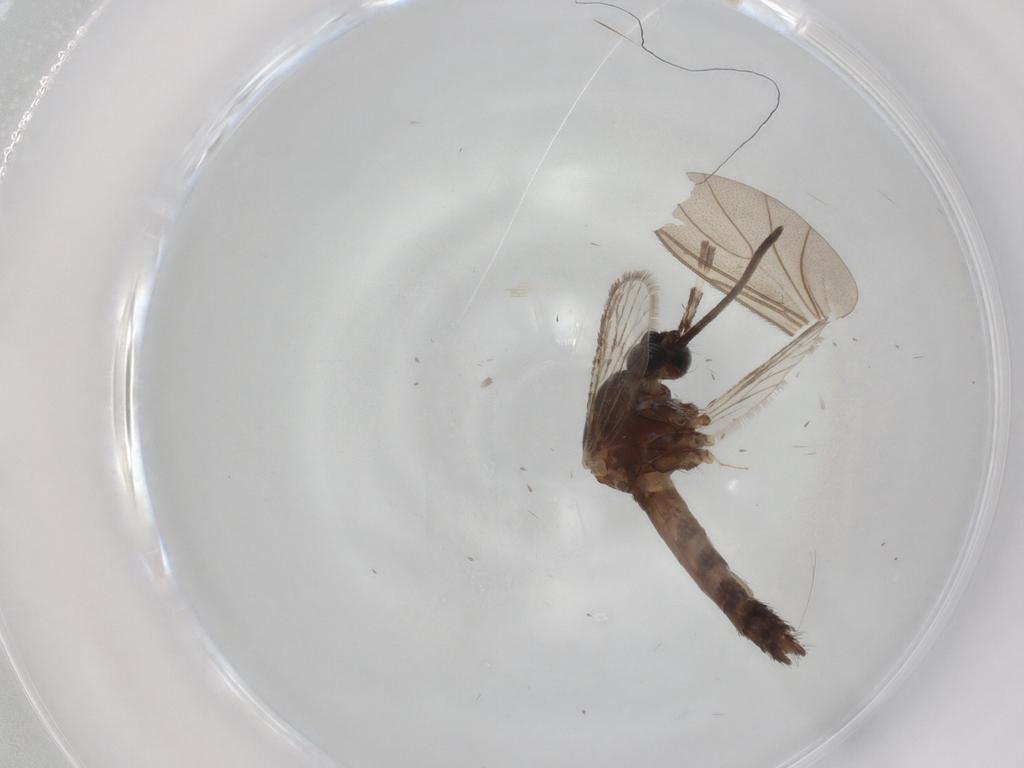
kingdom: Animalia
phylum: Arthropoda
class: Insecta
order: Diptera
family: Culicidae
